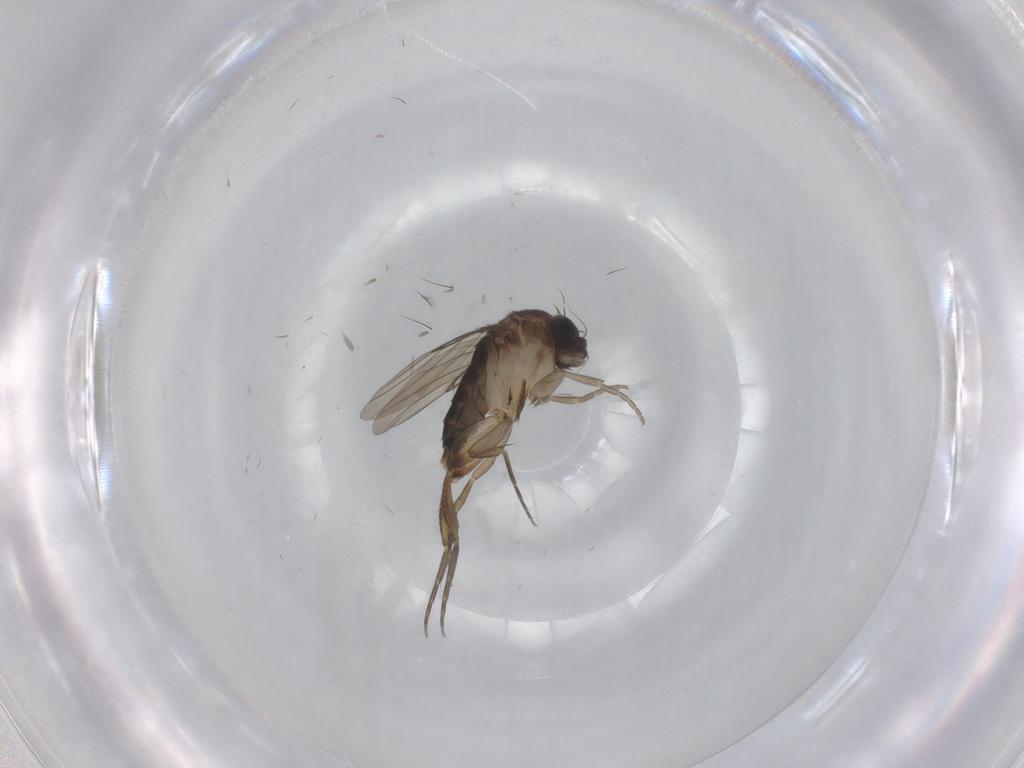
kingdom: Animalia
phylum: Arthropoda
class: Insecta
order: Diptera
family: Phoridae
